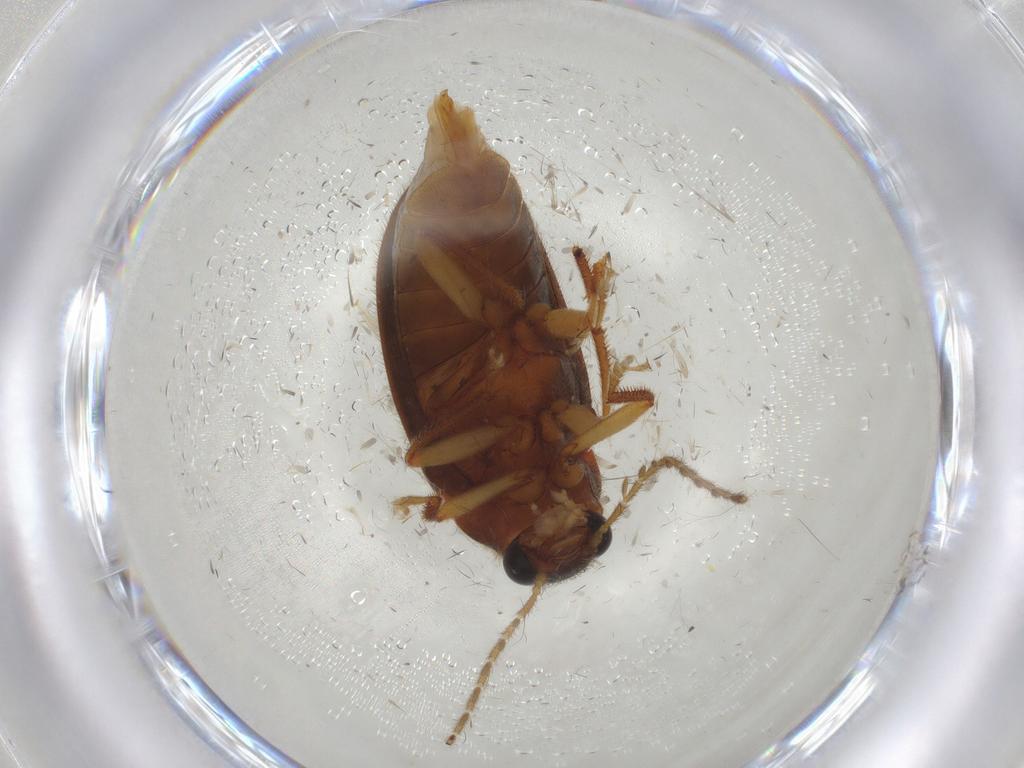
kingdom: Animalia
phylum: Arthropoda
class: Insecta
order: Coleoptera
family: Ptilodactylidae
